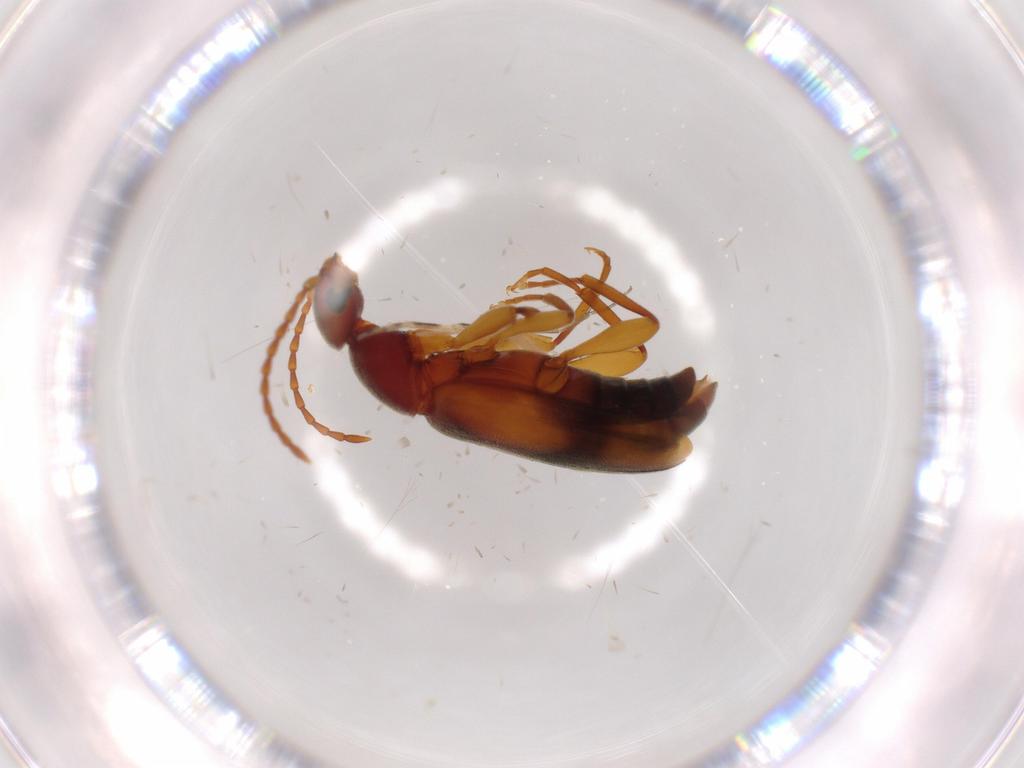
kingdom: Animalia
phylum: Arthropoda
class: Insecta
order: Coleoptera
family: Anthicidae
